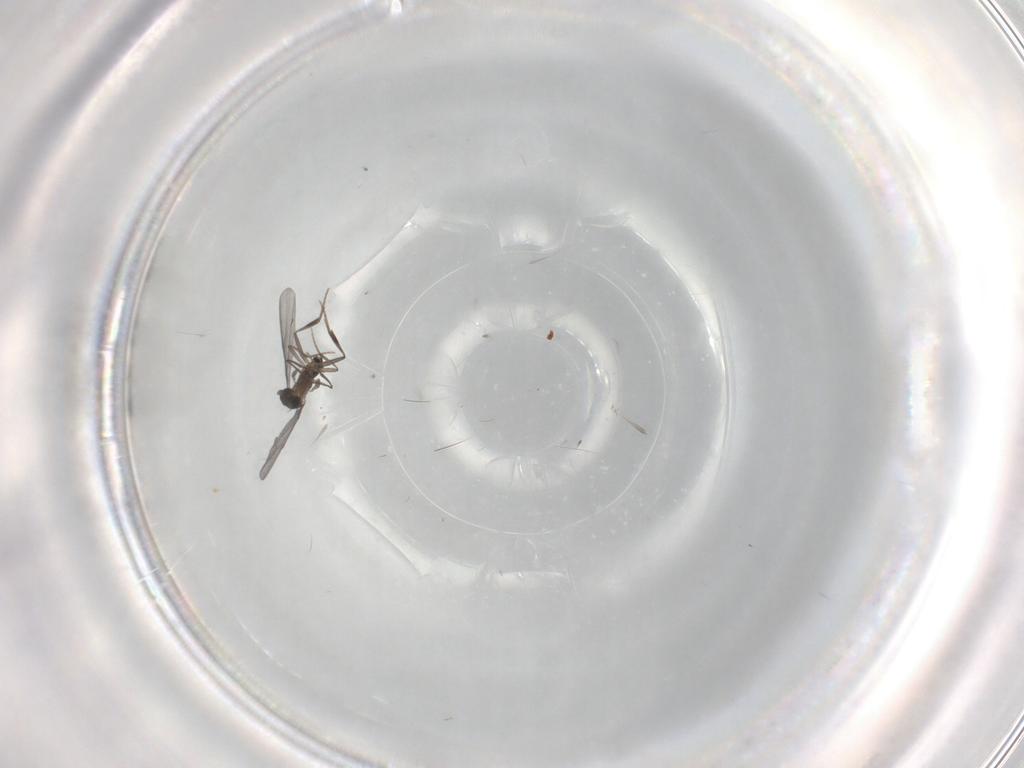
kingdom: Animalia
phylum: Arthropoda
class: Insecta
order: Diptera
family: Phoridae
